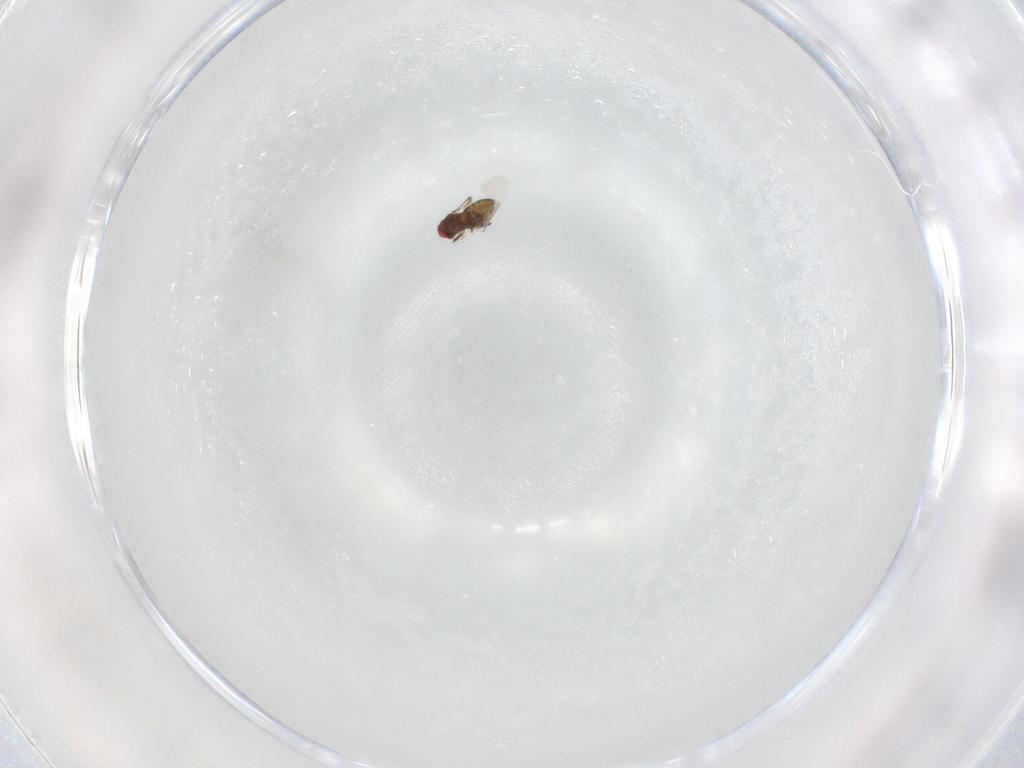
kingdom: Animalia
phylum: Arthropoda
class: Insecta
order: Hymenoptera
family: Trichogrammatidae
